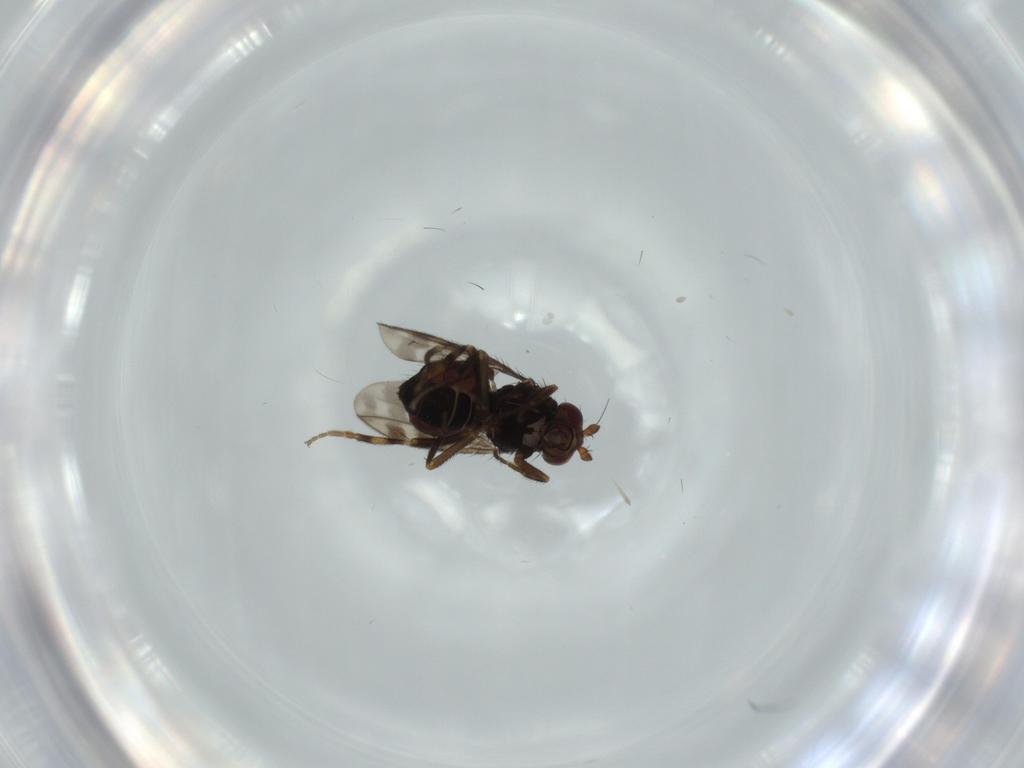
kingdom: Animalia
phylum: Arthropoda
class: Insecta
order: Diptera
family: Sphaeroceridae
